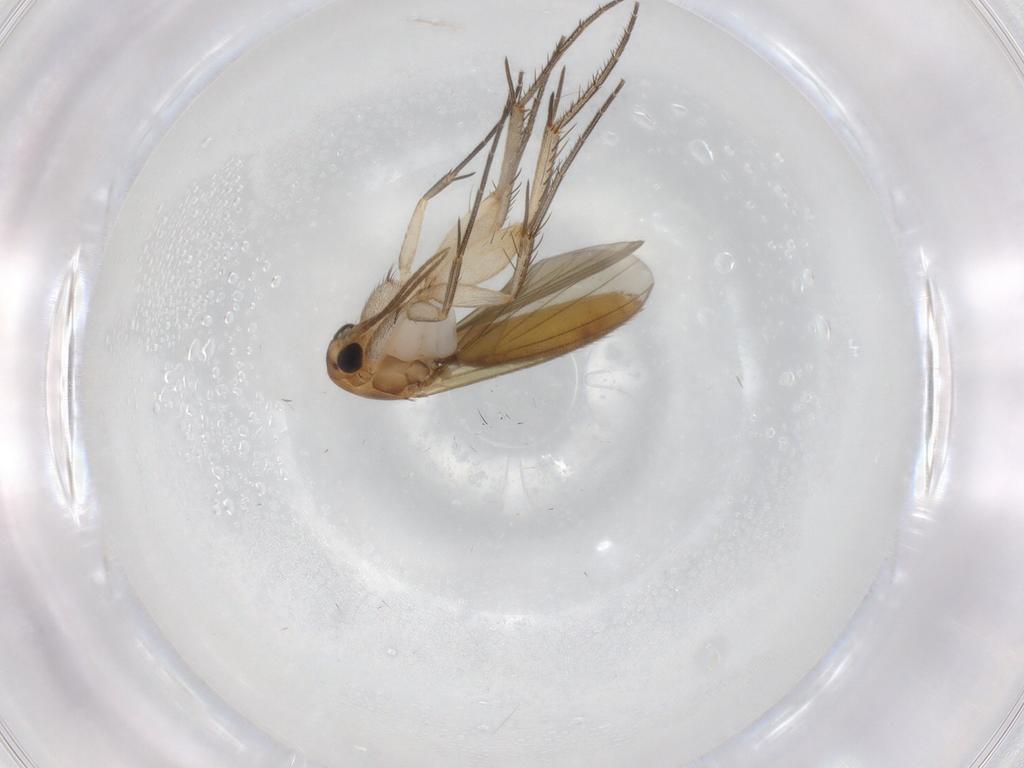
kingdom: Animalia
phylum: Arthropoda
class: Insecta
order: Diptera
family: Mycetophilidae
